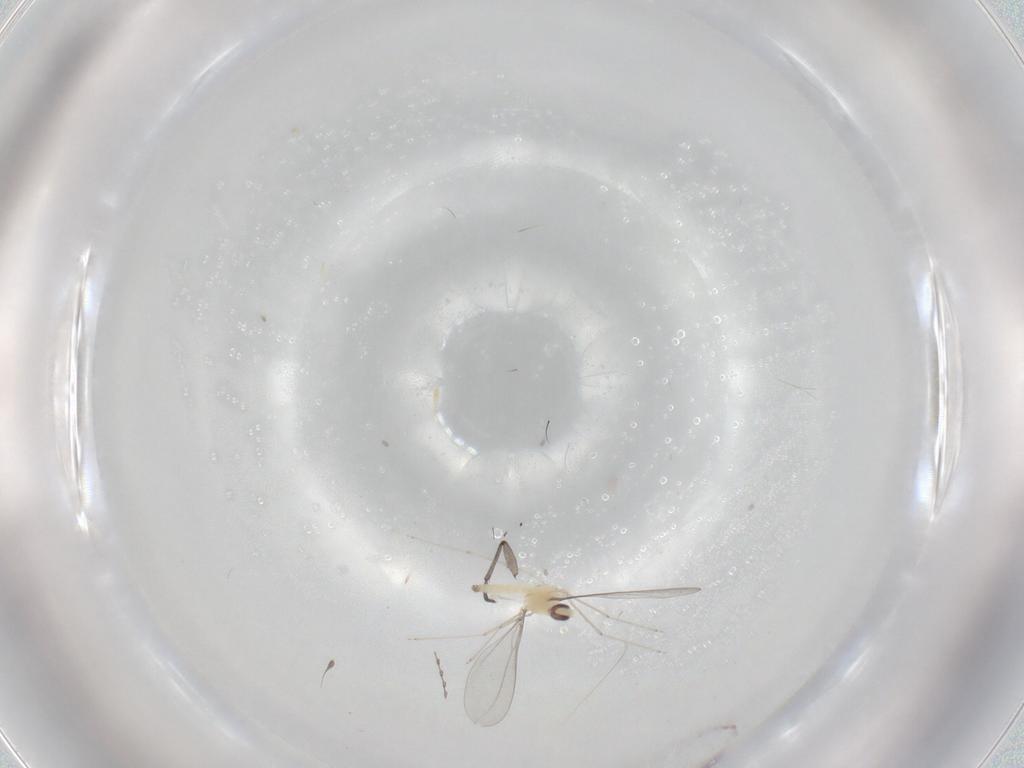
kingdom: Animalia
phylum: Arthropoda
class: Insecta
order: Diptera
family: Cecidomyiidae
